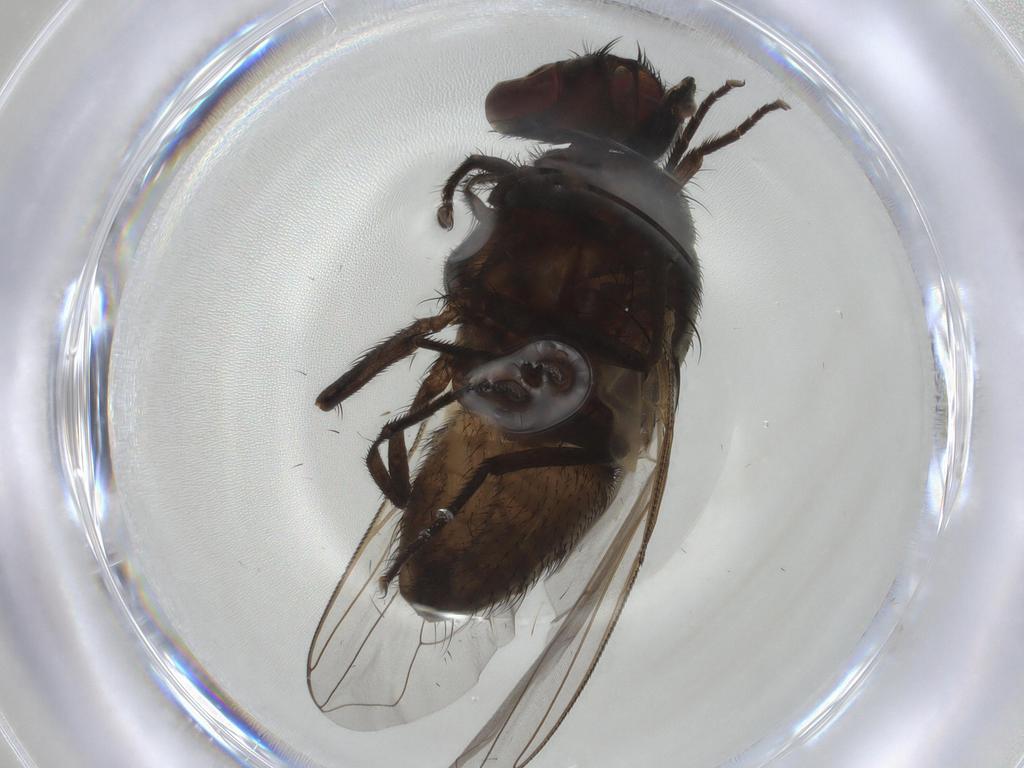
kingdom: Animalia
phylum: Arthropoda
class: Insecta
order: Diptera
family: Muscidae
